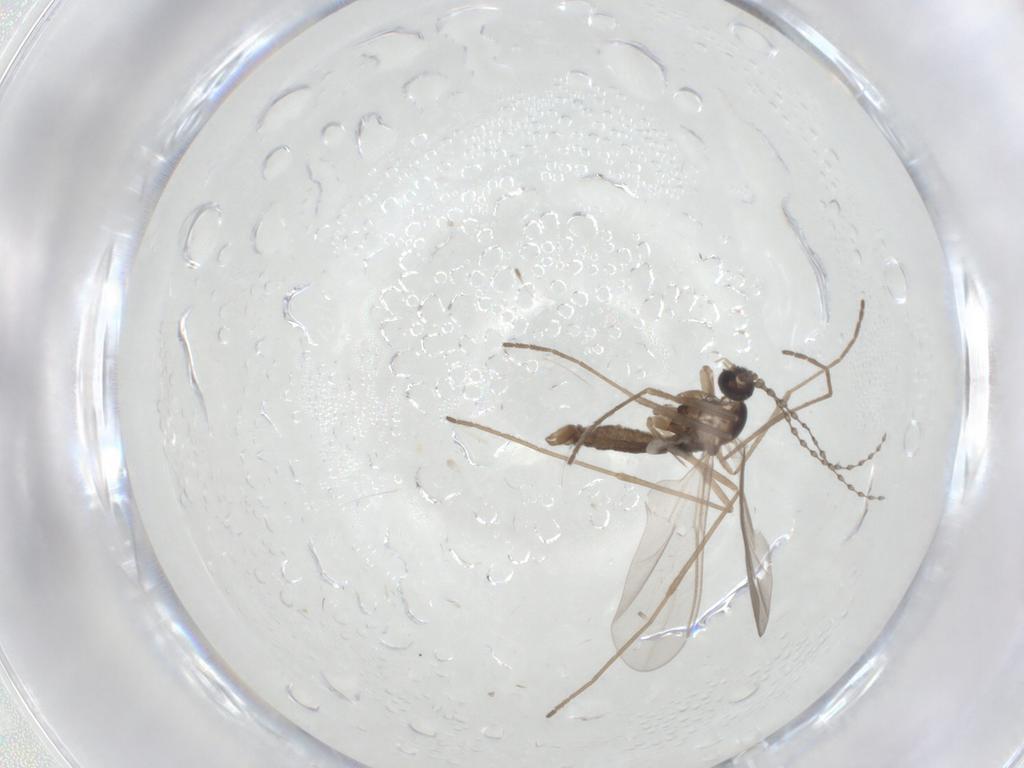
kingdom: Animalia
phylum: Arthropoda
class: Insecta
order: Diptera
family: Cecidomyiidae
